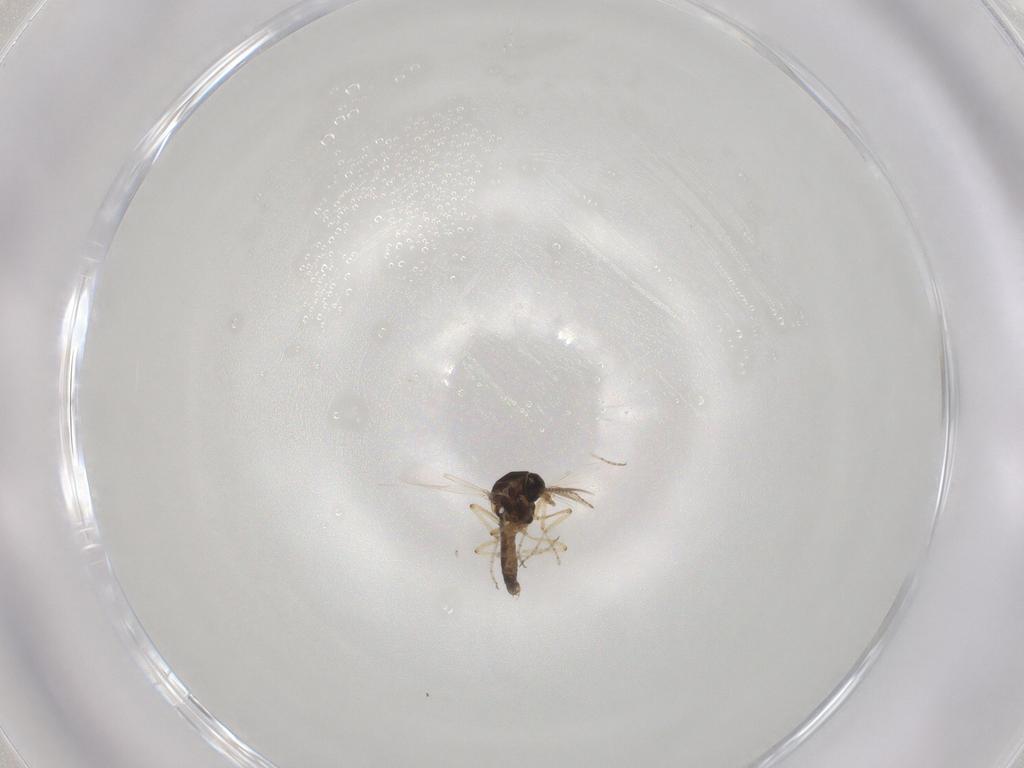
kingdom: Animalia
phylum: Arthropoda
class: Insecta
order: Diptera
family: Ceratopogonidae
